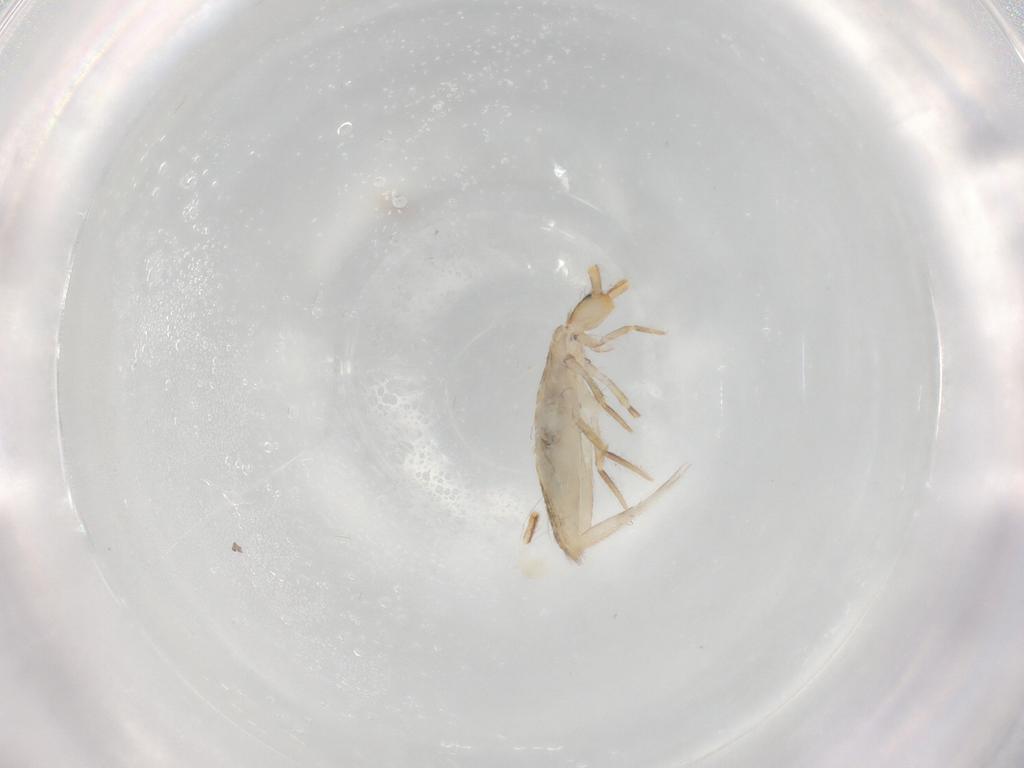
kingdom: Animalia
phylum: Arthropoda
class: Collembola
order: Entomobryomorpha
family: Entomobryidae
